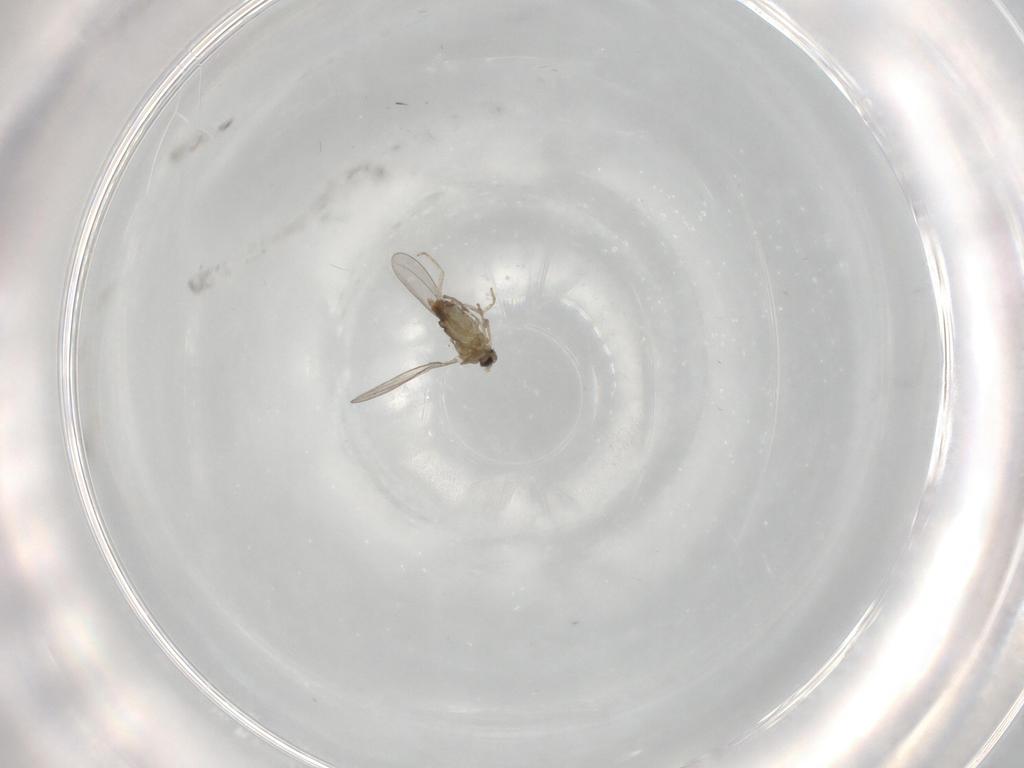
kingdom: Animalia
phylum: Arthropoda
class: Insecta
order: Diptera
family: Cecidomyiidae
